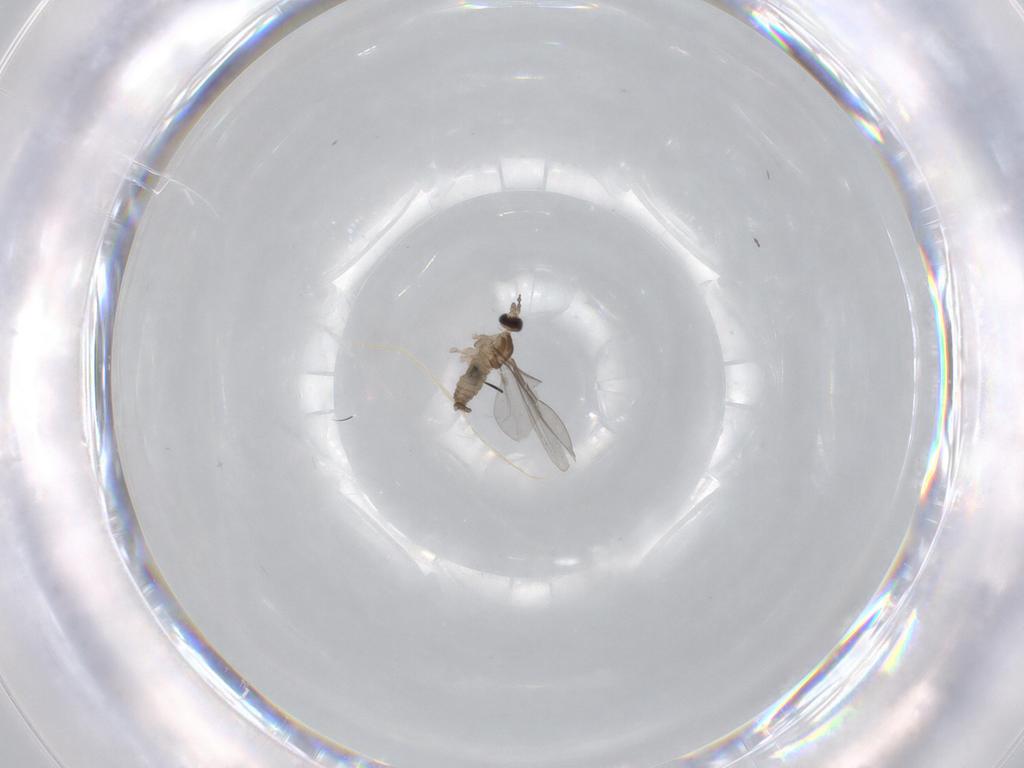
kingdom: Animalia
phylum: Arthropoda
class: Insecta
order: Diptera
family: Cecidomyiidae
